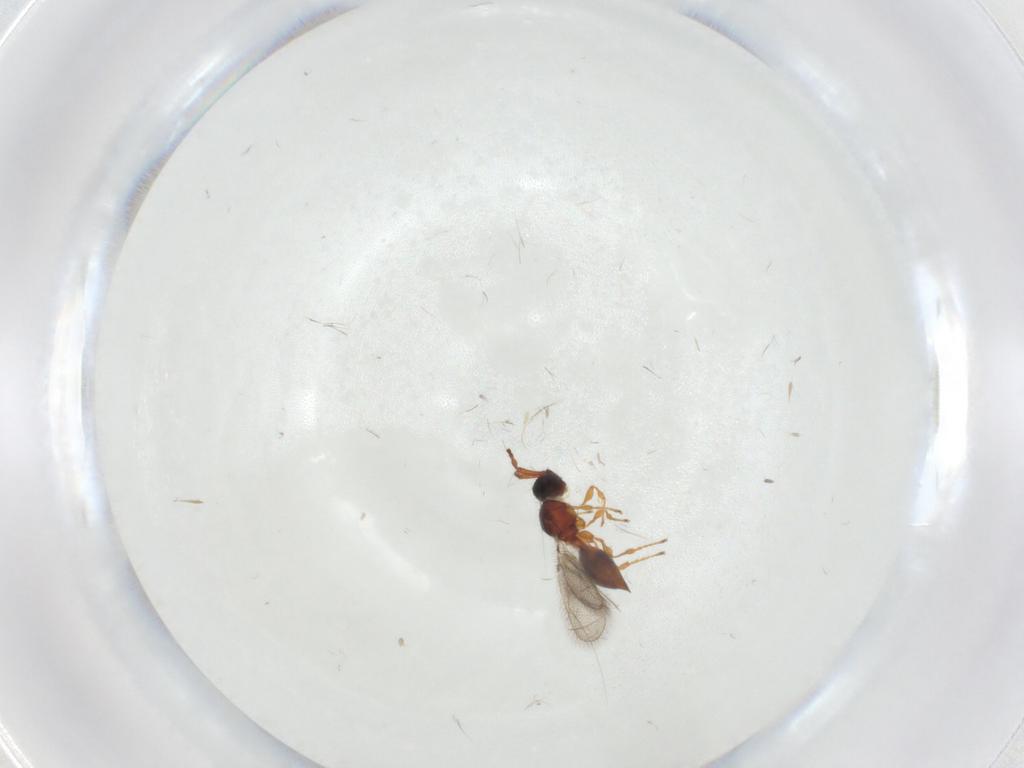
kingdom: Animalia
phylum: Arthropoda
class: Insecta
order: Hymenoptera
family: Diapriidae
